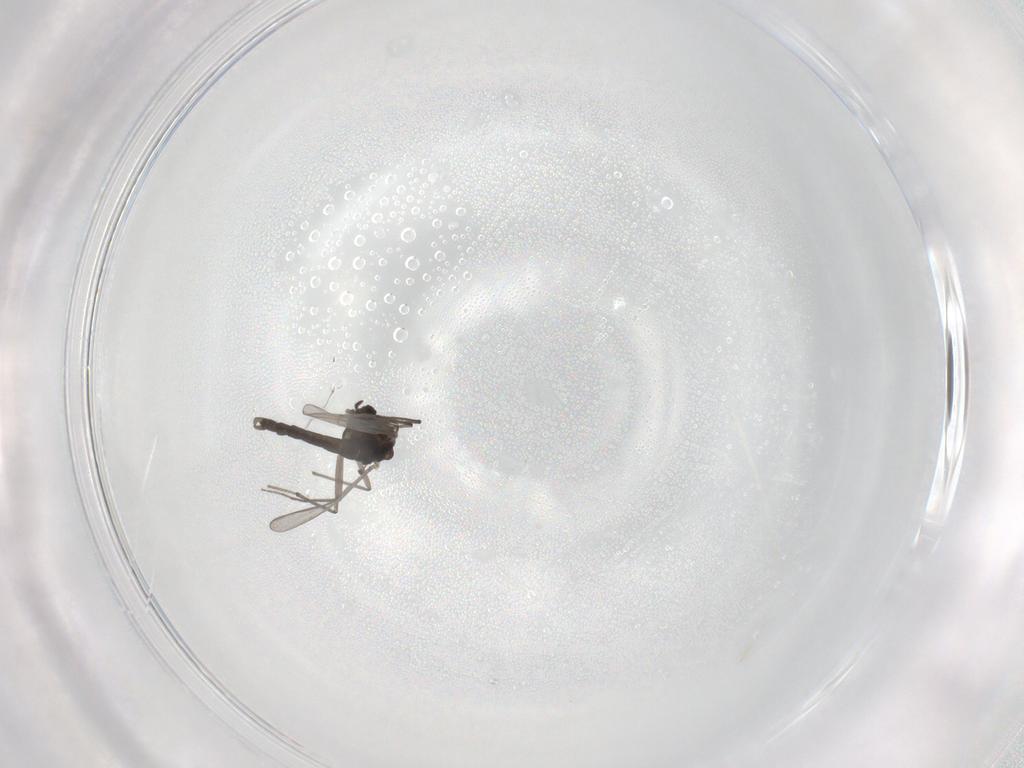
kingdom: Animalia
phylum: Arthropoda
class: Insecta
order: Diptera
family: Chironomidae
